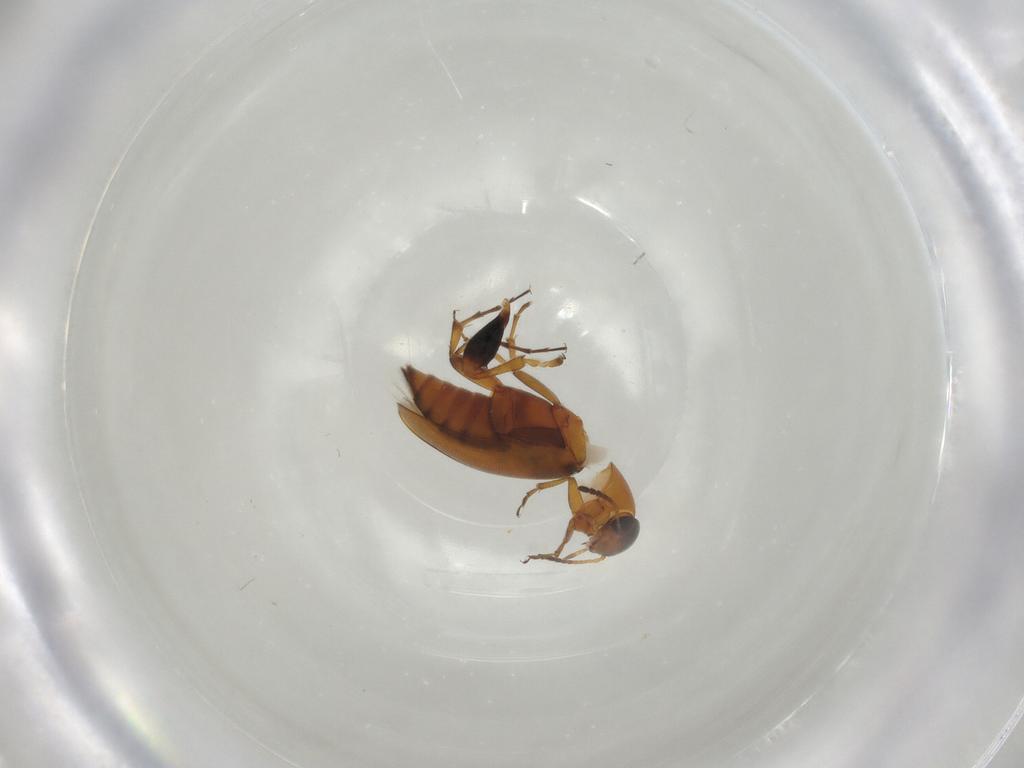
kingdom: Animalia
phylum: Arthropoda
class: Insecta
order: Coleoptera
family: Scraptiidae
